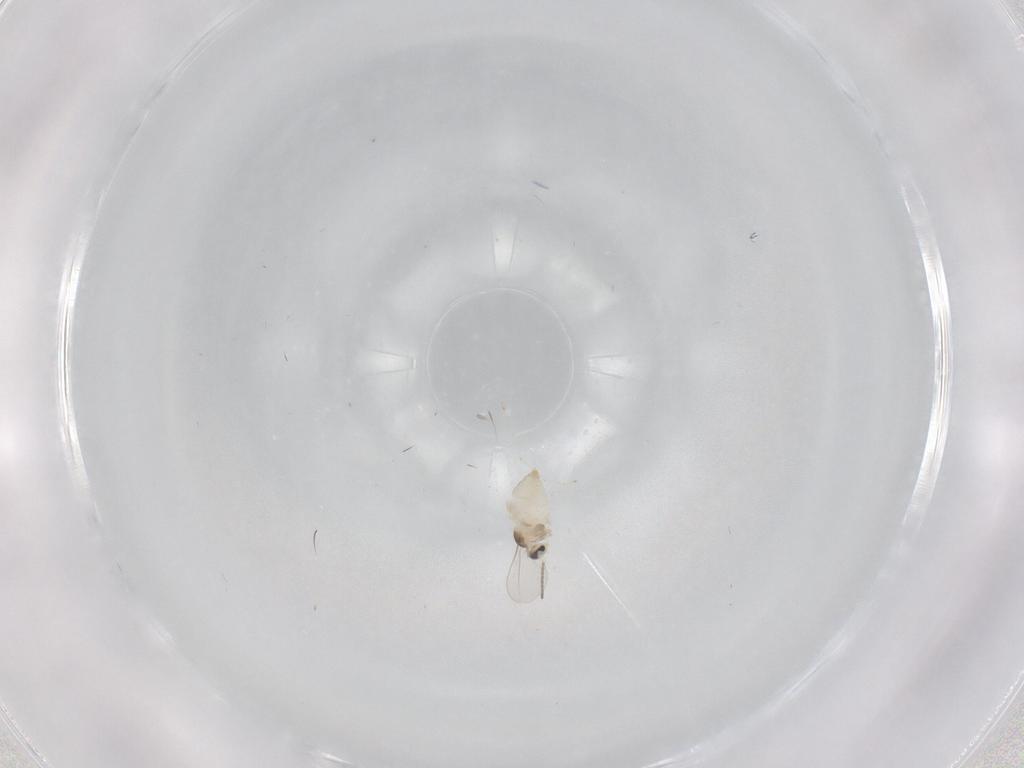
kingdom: Animalia
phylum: Arthropoda
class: Insecta
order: Diptera
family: Cecidomyiidae
